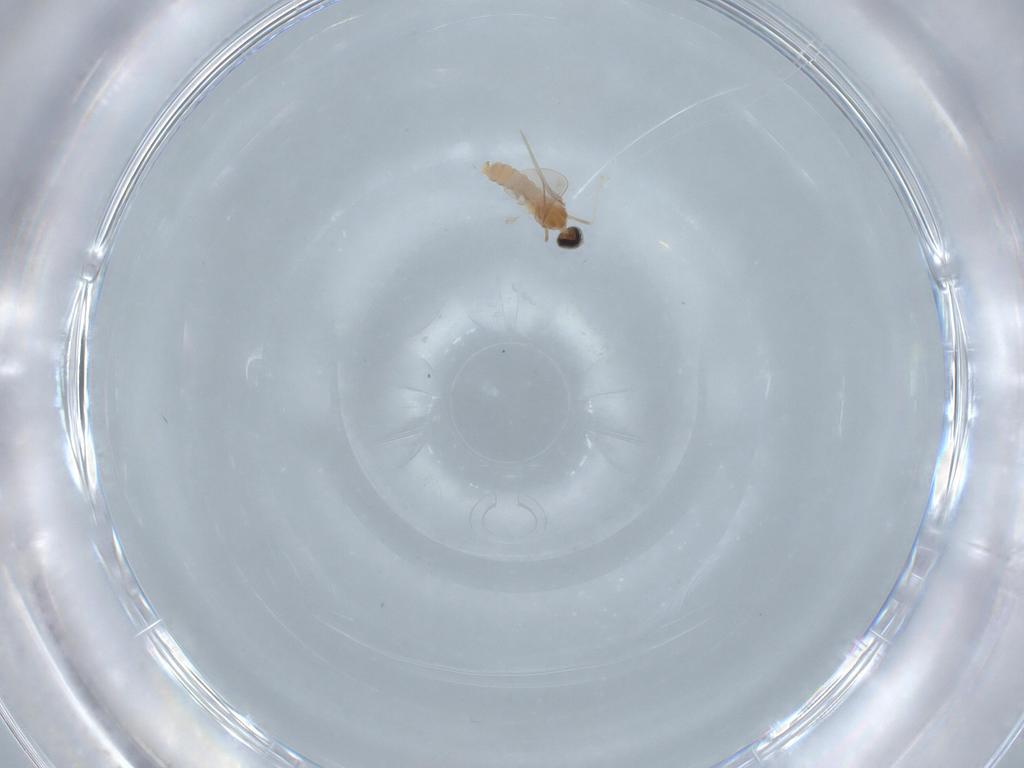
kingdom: Animalia
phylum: Arthropoda
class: Insecta
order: Diptera
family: Cecidomyiidae
